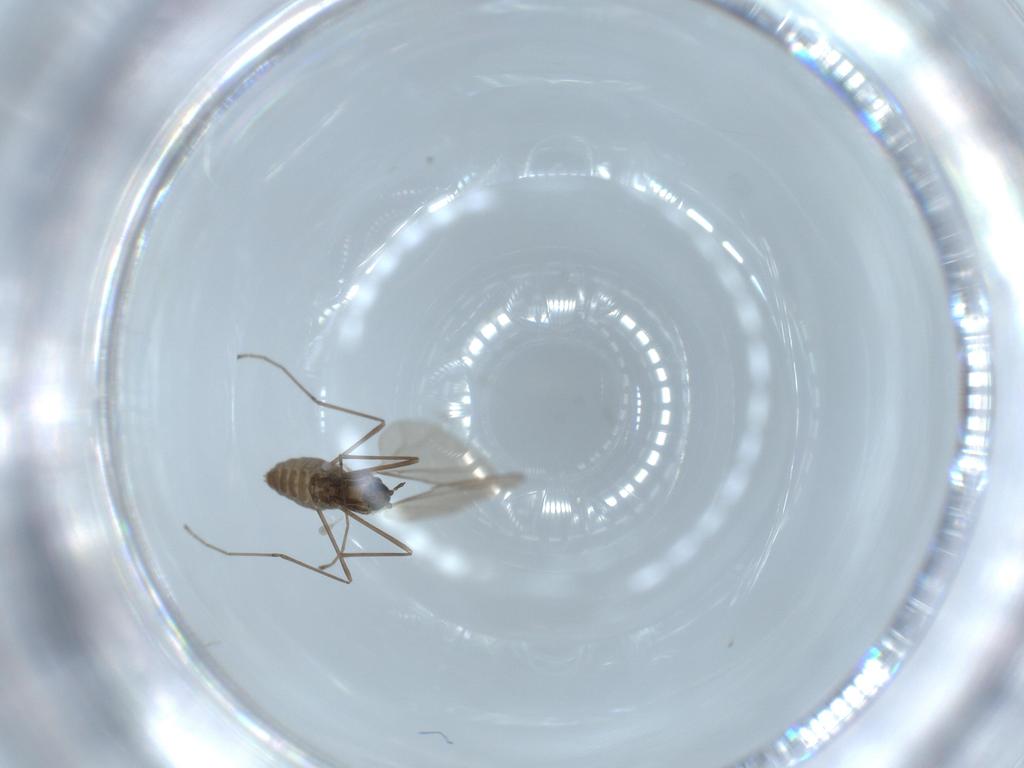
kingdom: Animalia
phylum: Arthropoda
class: Insecta
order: Diptera
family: Cecidomyiidae
